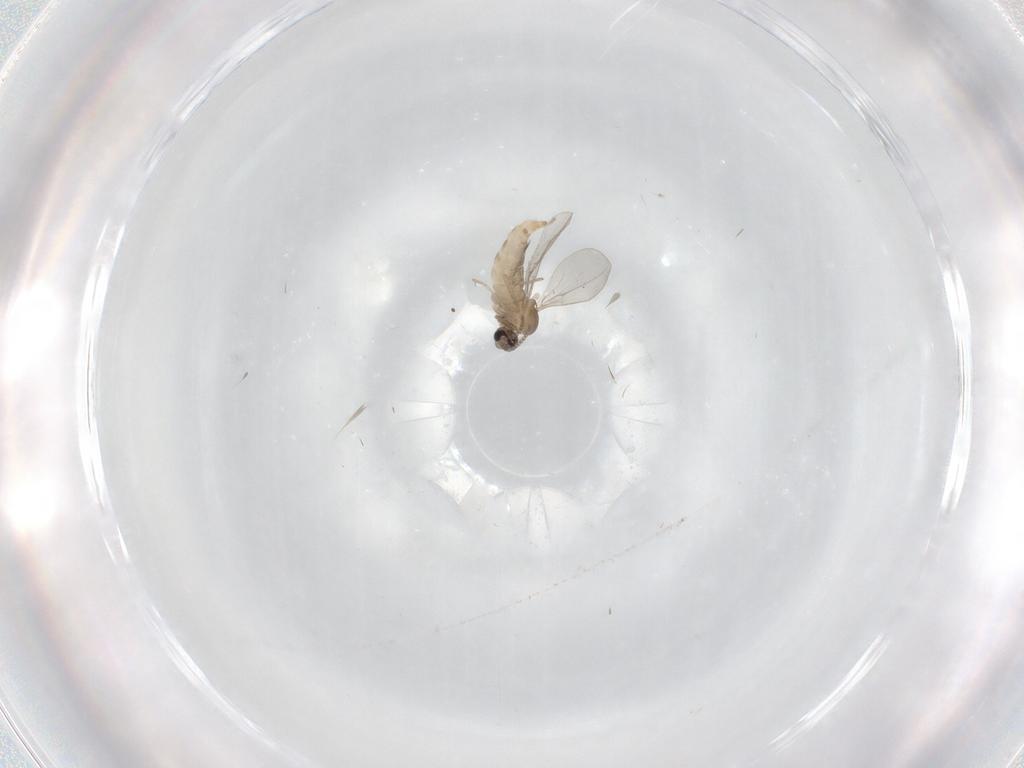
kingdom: Animalia
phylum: Arthropoda
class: Insecta
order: Diptera
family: Cecidomyiidae
